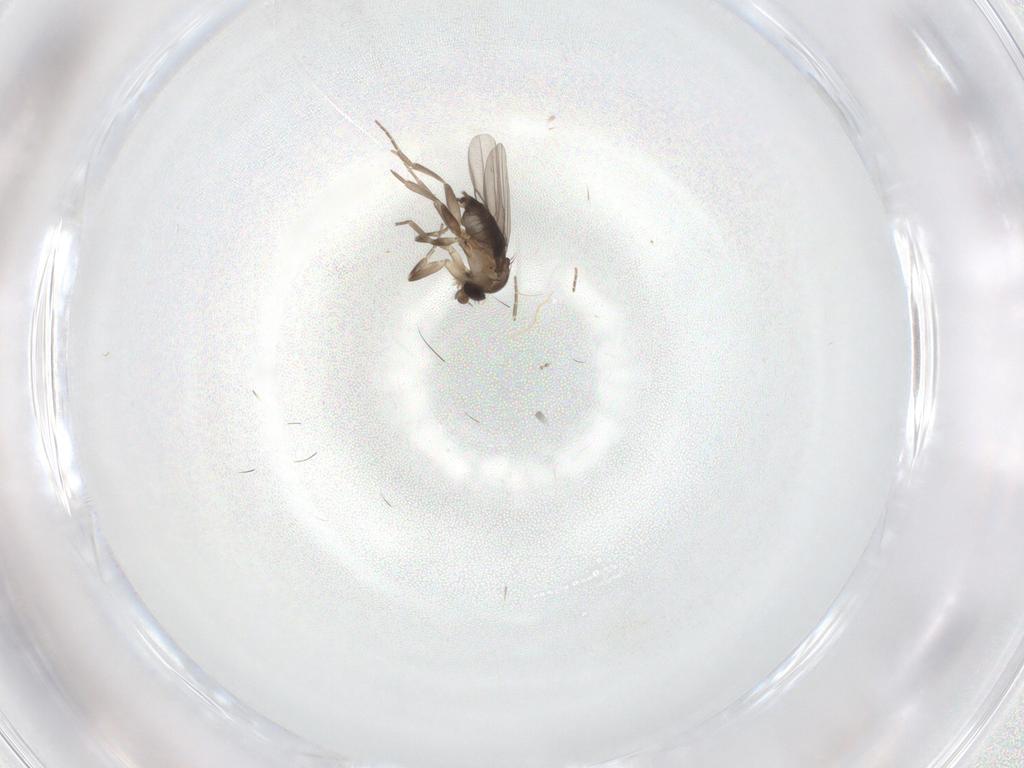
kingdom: Animalia
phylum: Arthropoda
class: Insecta
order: Diptera
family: Phoridae
